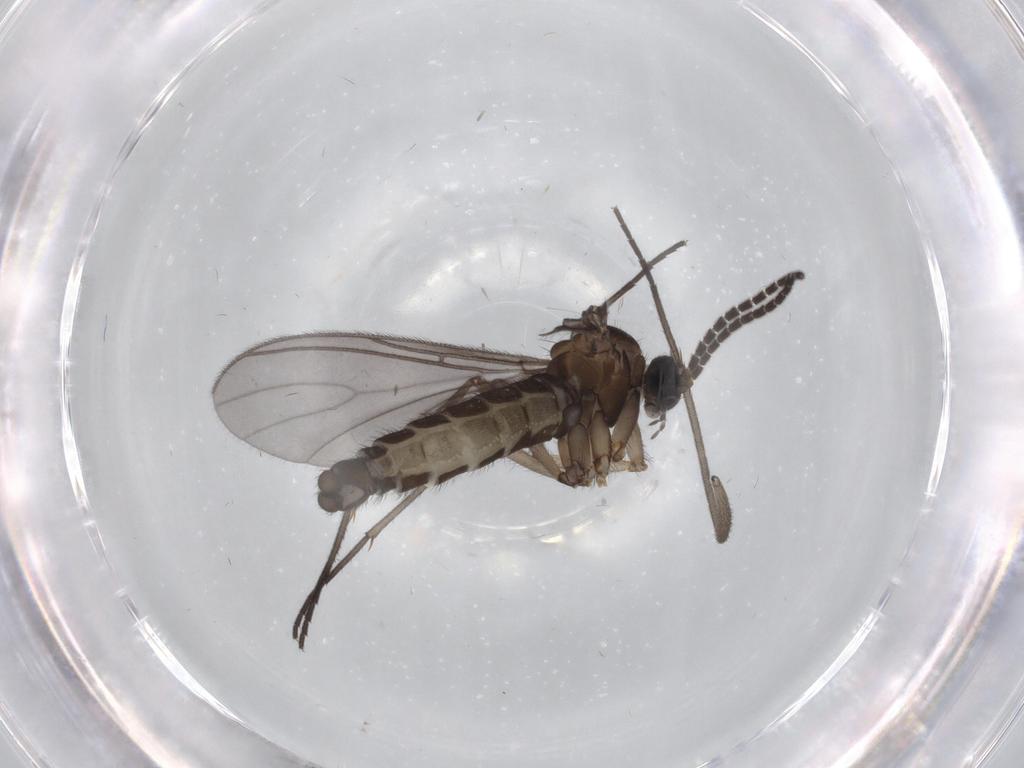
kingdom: Animalia
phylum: Arthropoda
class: Insecta
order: Diptera
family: Sciaridae
